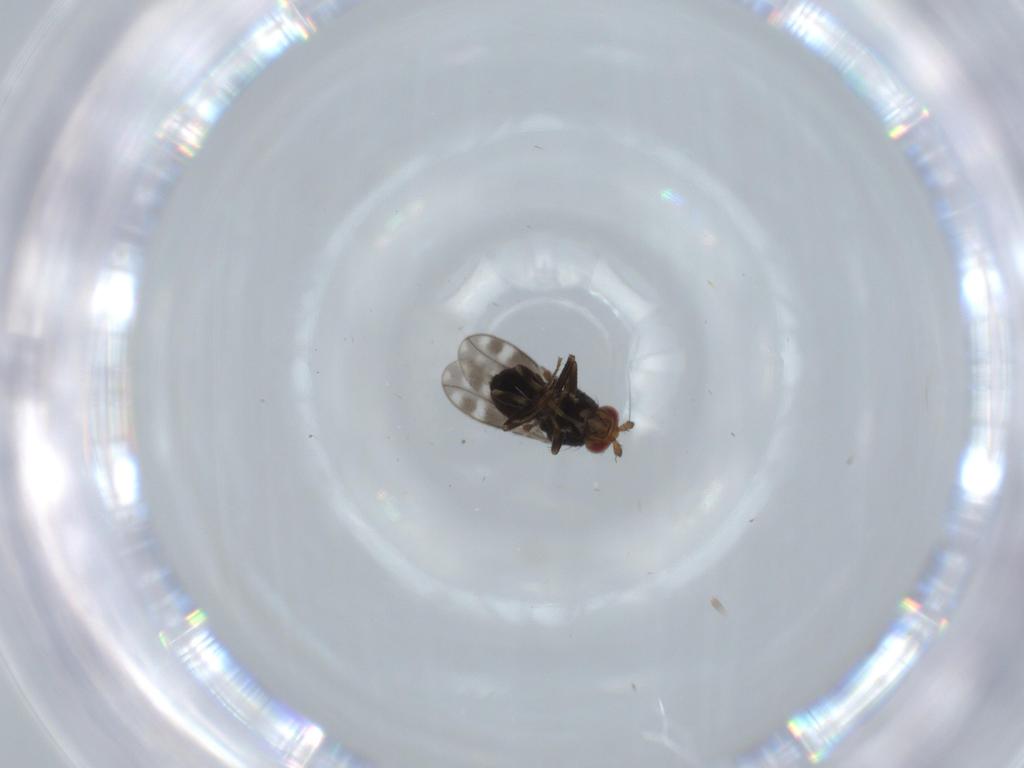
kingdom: Animalia
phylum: Arthropoda
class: Insecta
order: Diptera
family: Sphaeroceridae
